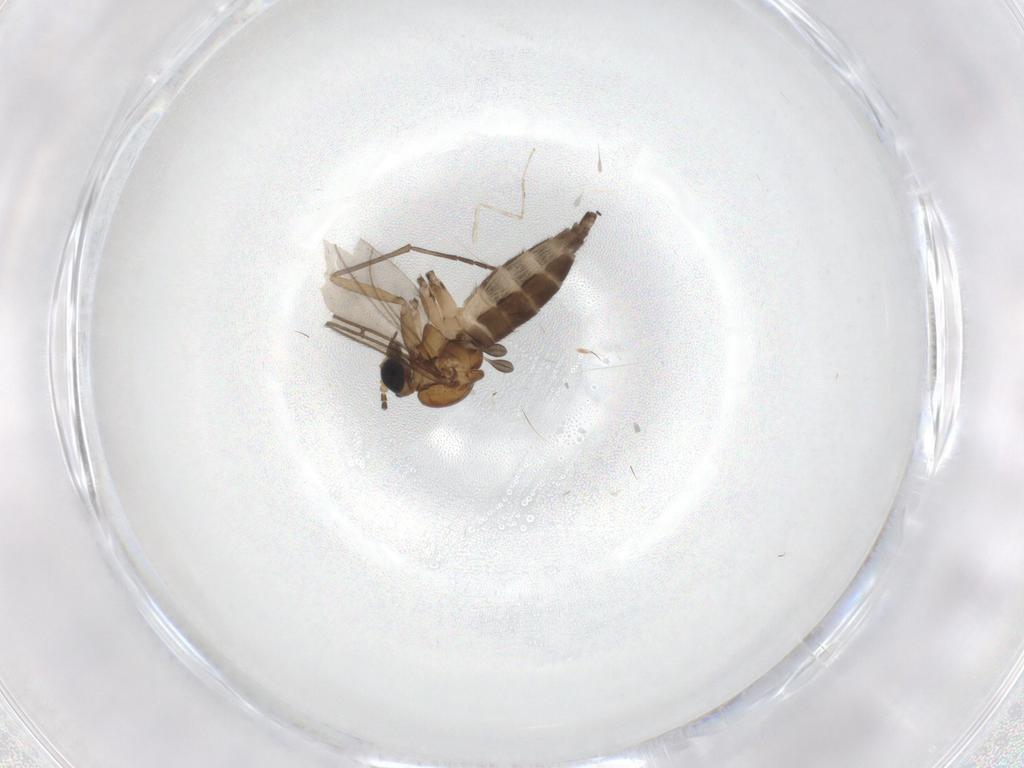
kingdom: Animalia
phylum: Arthropoda
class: Insecta
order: Diptera
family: Sciaridae
